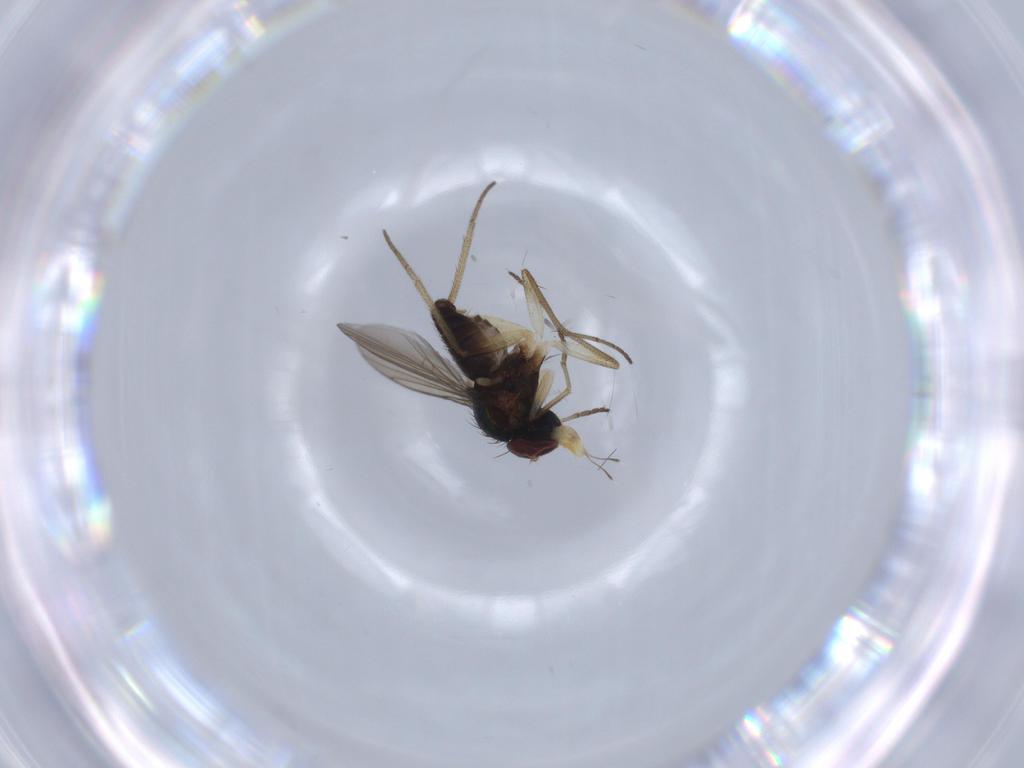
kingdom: Animalia
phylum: Arthropoda
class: Insecta
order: Diptera
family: Dolichopodidae
